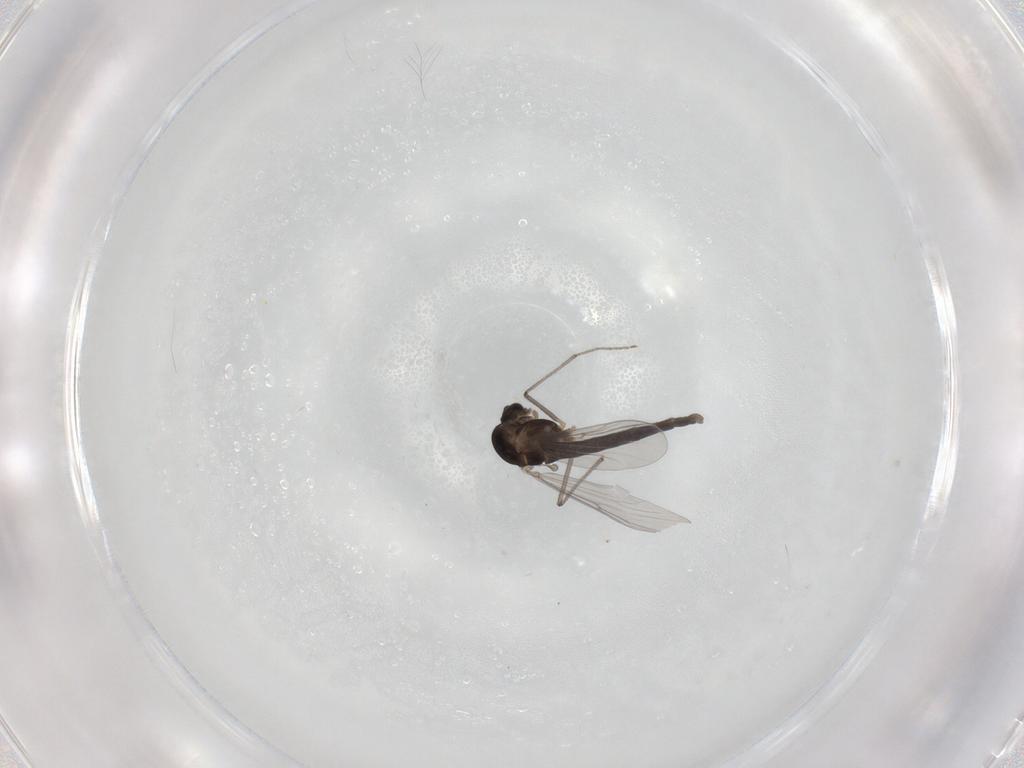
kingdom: Animalia
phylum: Arthropoda
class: Insecta
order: Diptera
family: Chironomidae
